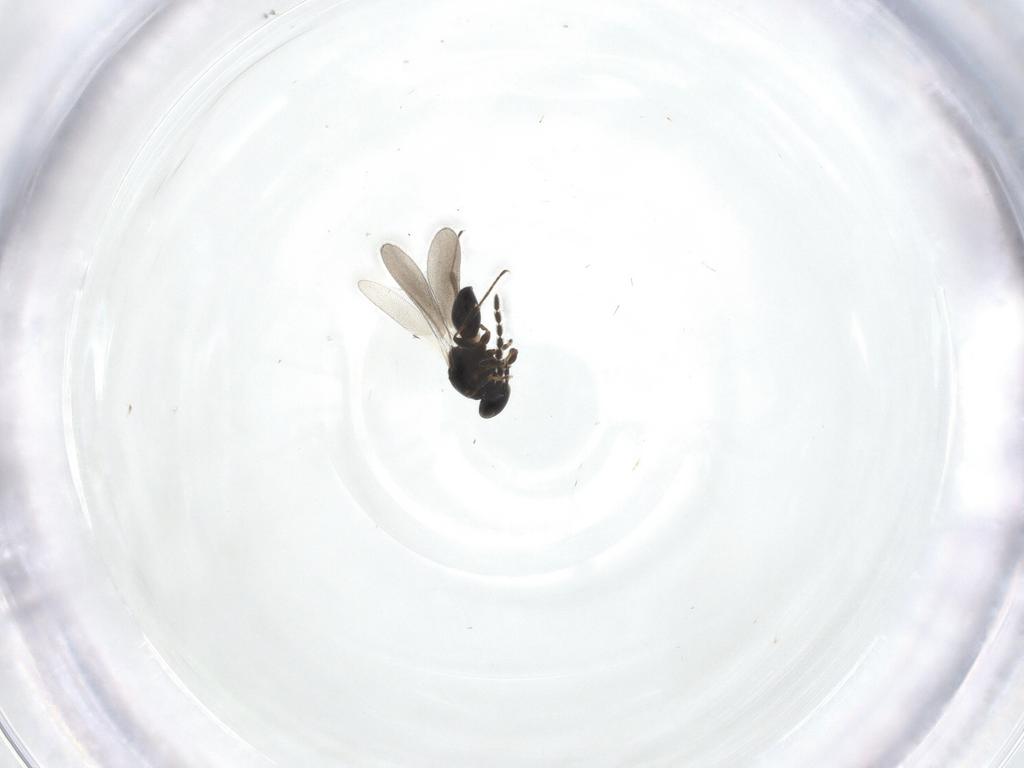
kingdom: Animalia
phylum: Arthropoda
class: Insecta
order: Hymenoptera
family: Platygastridae
